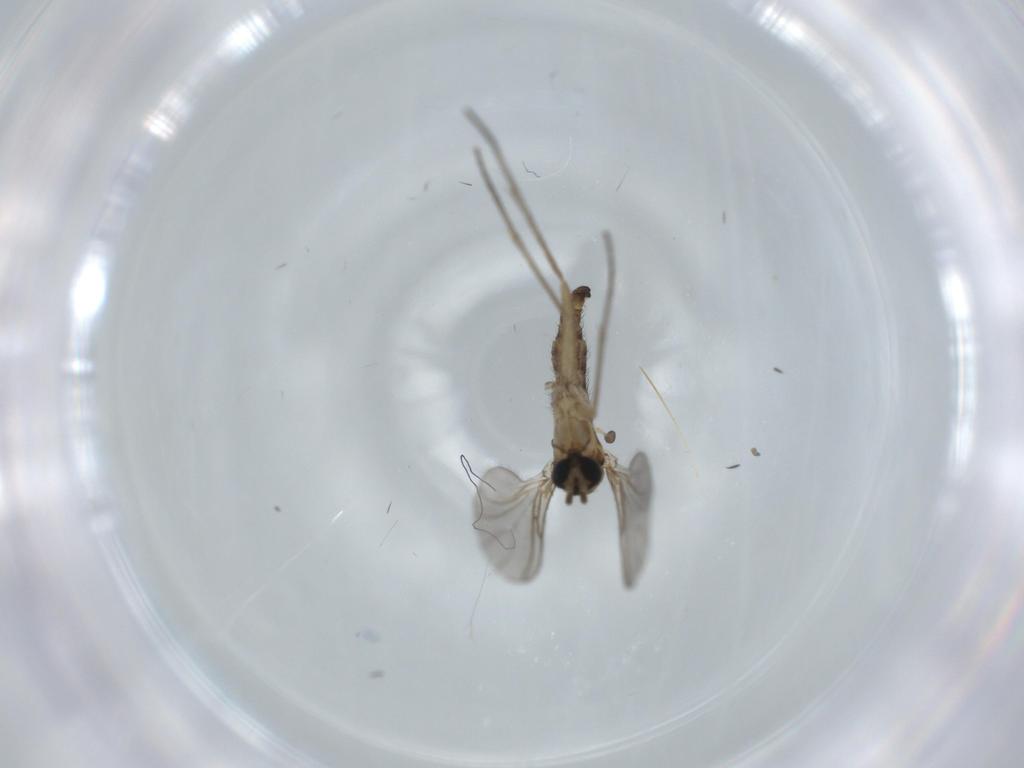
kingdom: Animalia
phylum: Arthropoda
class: Insecta
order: Diptera
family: Sciaridae
